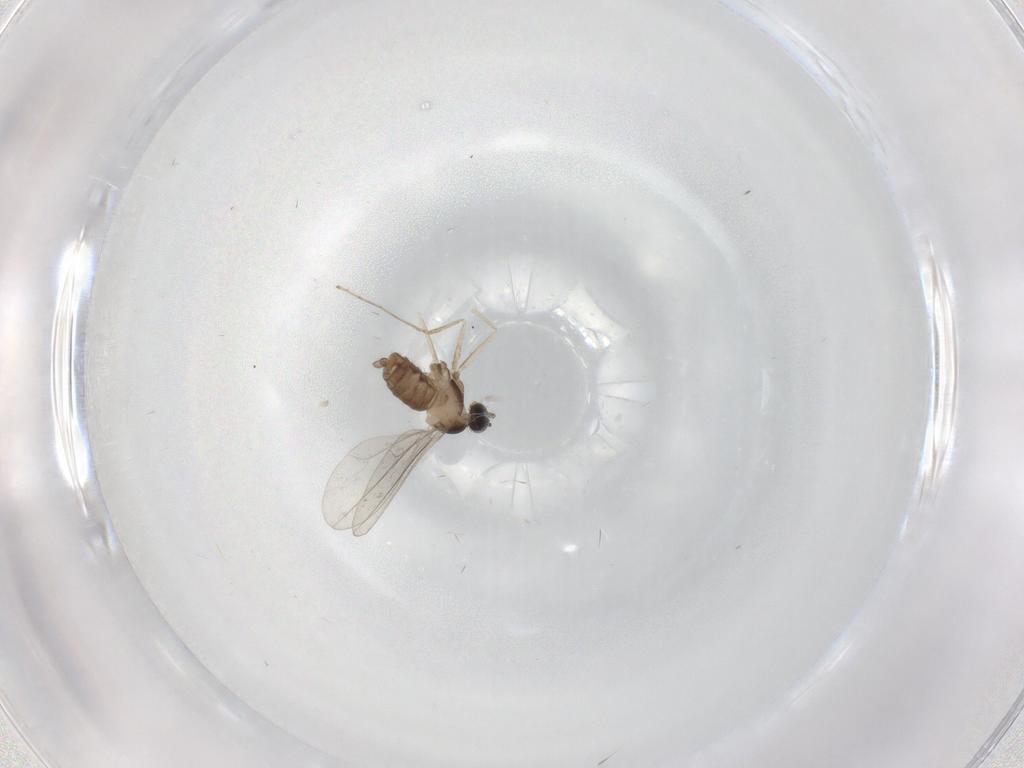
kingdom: Animalia
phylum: Arthropoda
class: Insecta
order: Diptera
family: Cecidomyiidae
